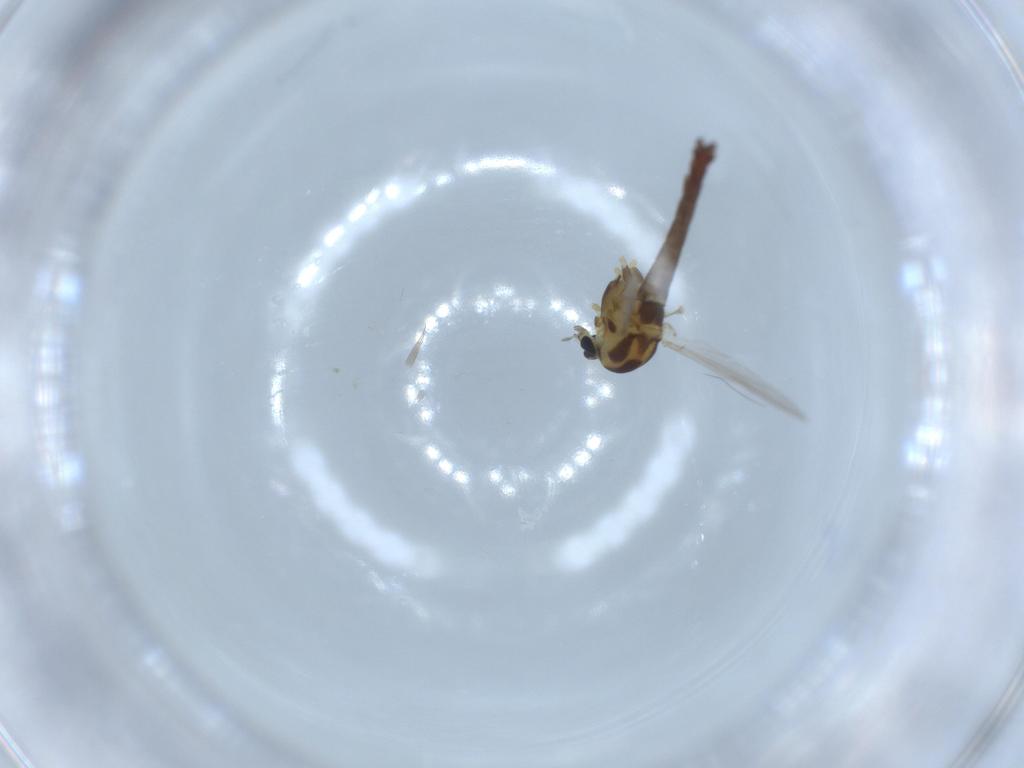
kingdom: Animalia
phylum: Arthropoda
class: Insecta
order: Diptera
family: Chironomidae
